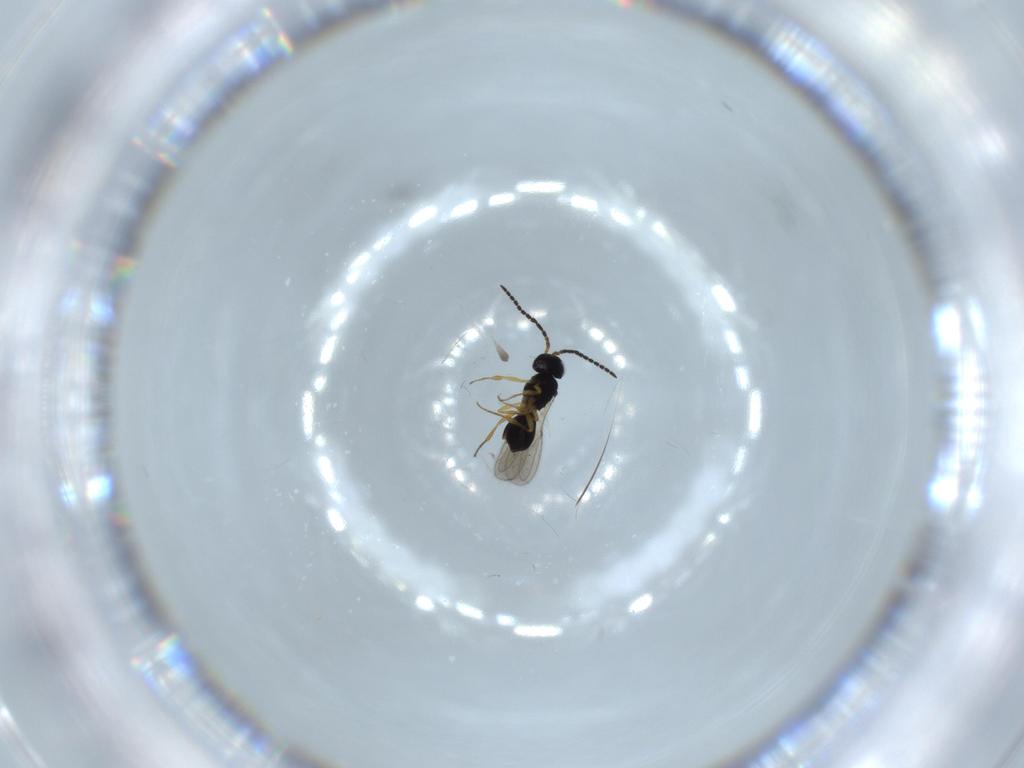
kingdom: Animalia
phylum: Arthropoda
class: Insecta
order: Hymenoptera
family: Scelionidae
